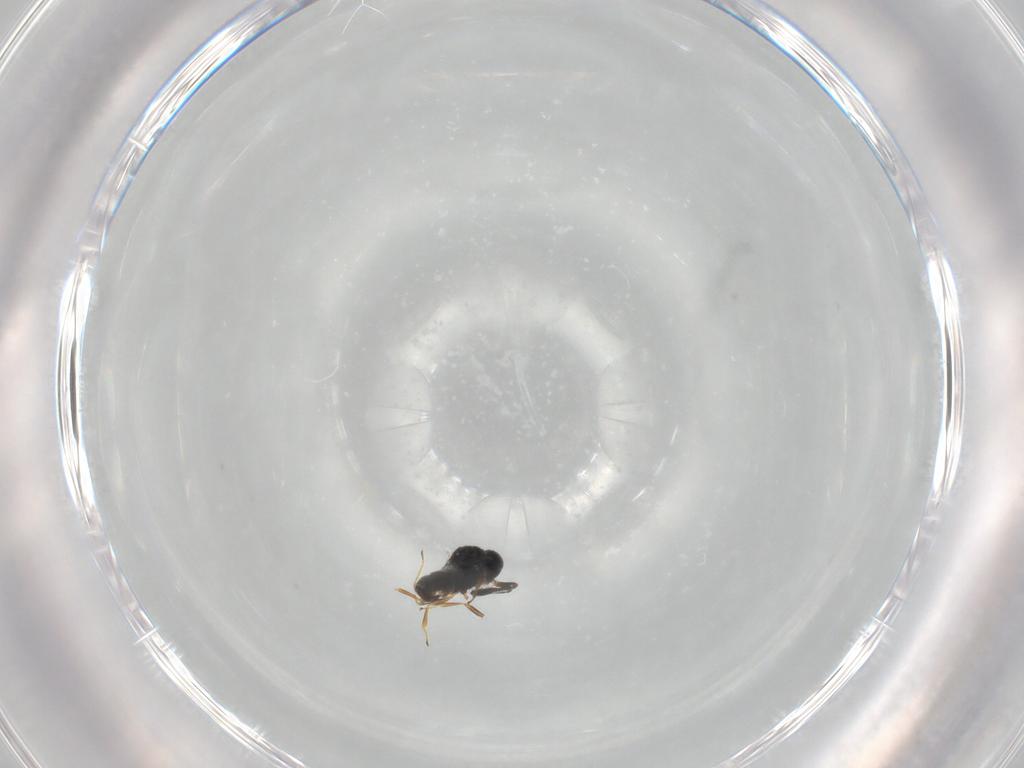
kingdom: Animalia
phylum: Arthropoda
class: Insecta
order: Hymenoptera
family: Scelionidae
